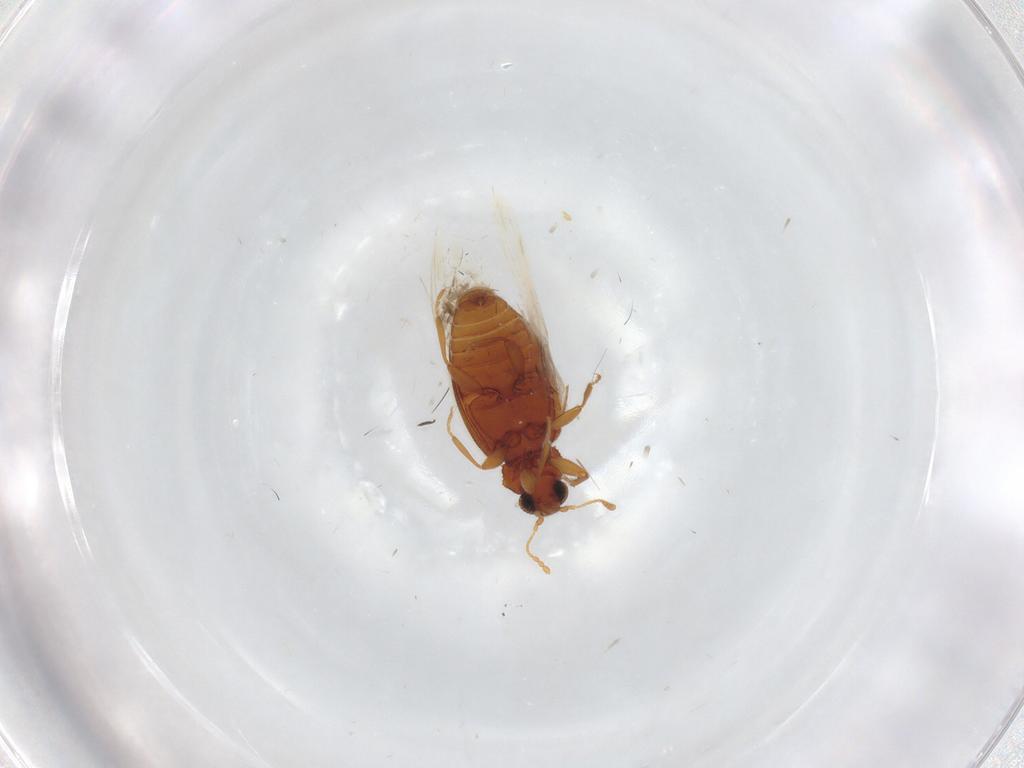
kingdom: Animalia
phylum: Arthropoda
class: Insecta
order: Coleoptera
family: Latridiidae
